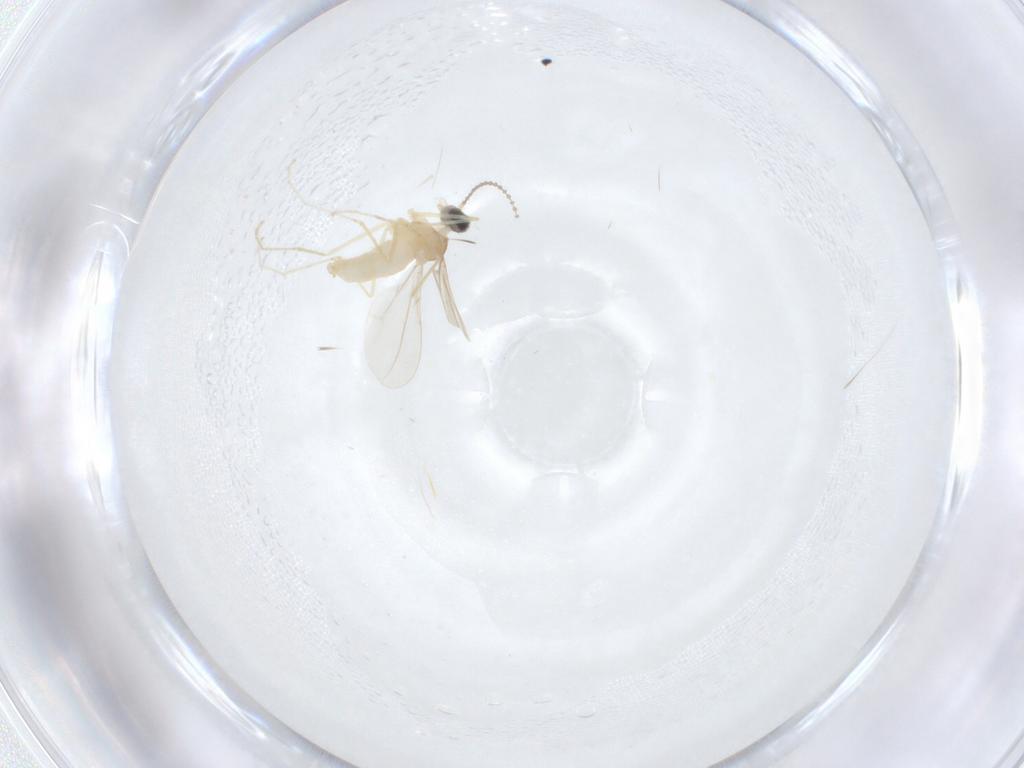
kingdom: Animalia
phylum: Arthropoda
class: Insecta
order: Diptera
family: Cecidomyiidae
